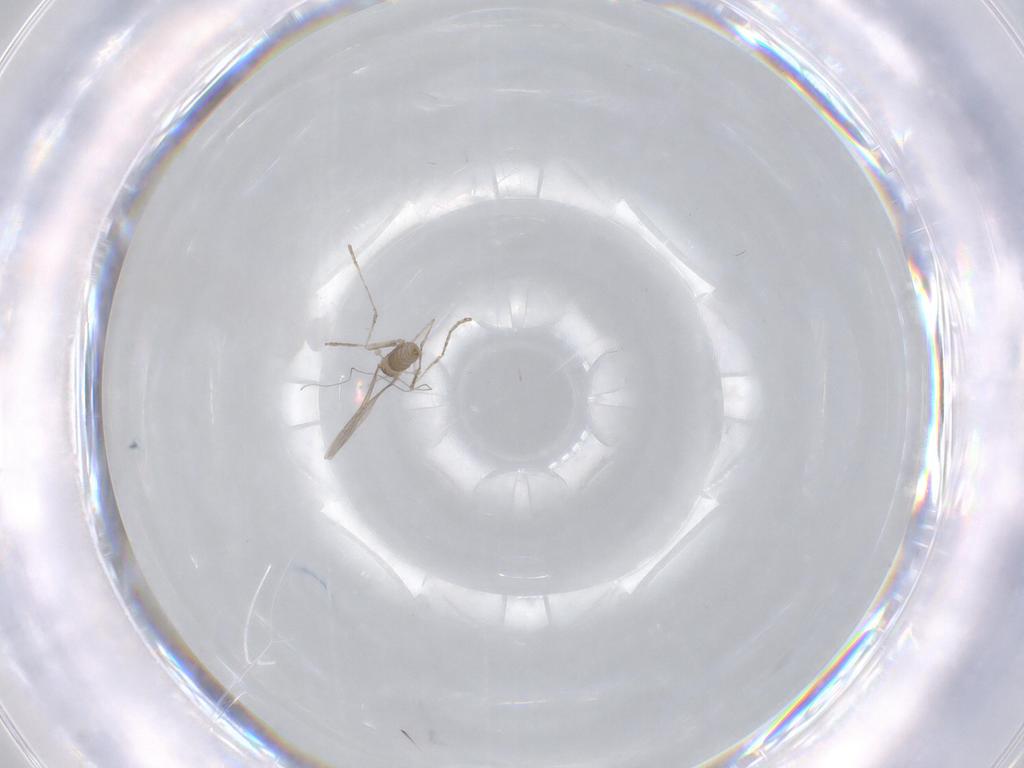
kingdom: Animalia
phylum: Arthropoda
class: Insecta
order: Diptera
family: Cecidomyiidae
